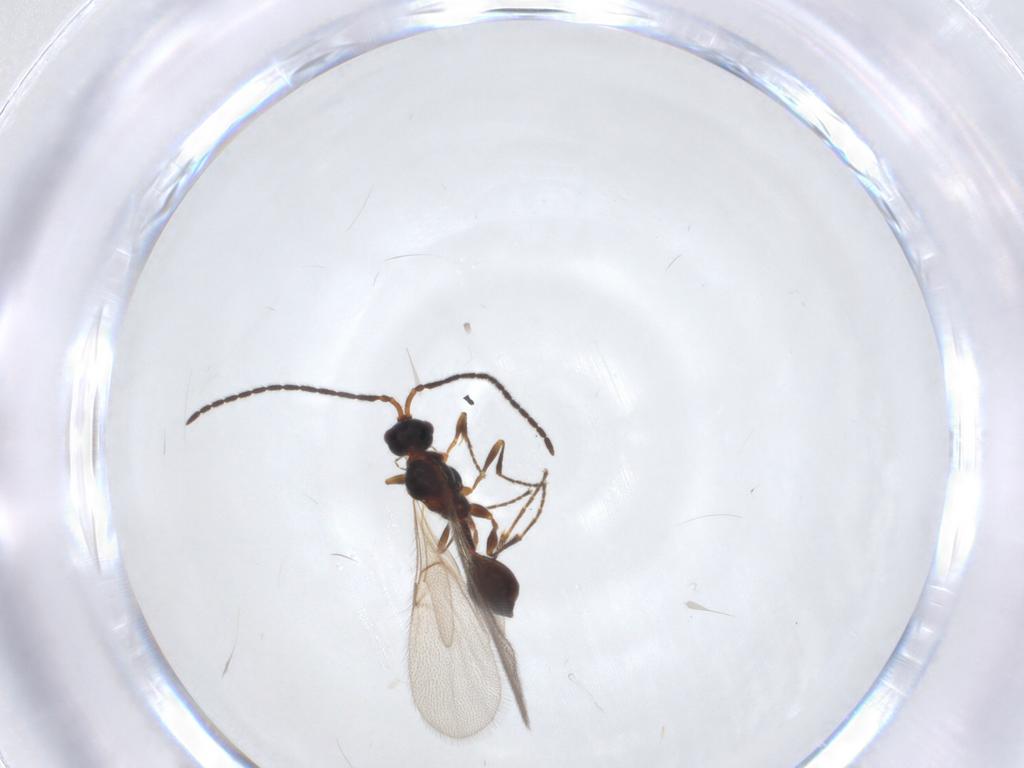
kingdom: Animalia
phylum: Arthropoda
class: Insecta
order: Hymenoptera
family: Diapriidae
